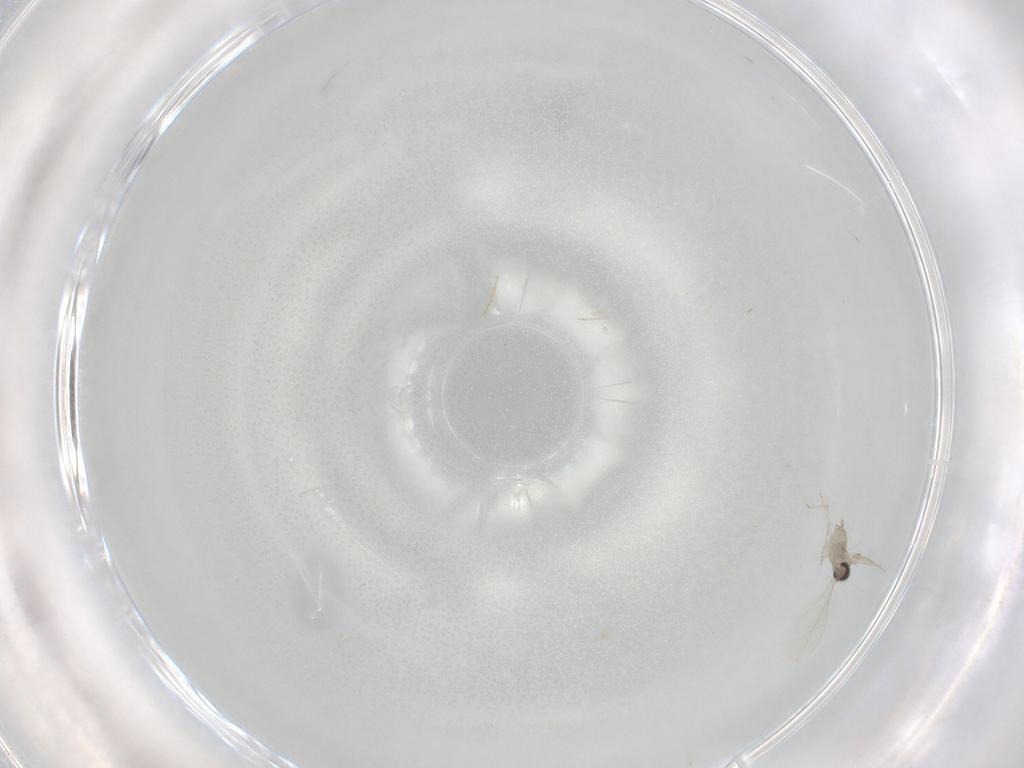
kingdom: Animalia
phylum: Arthropoda
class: Insecta
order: Diptera
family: Cecidomyiidae
